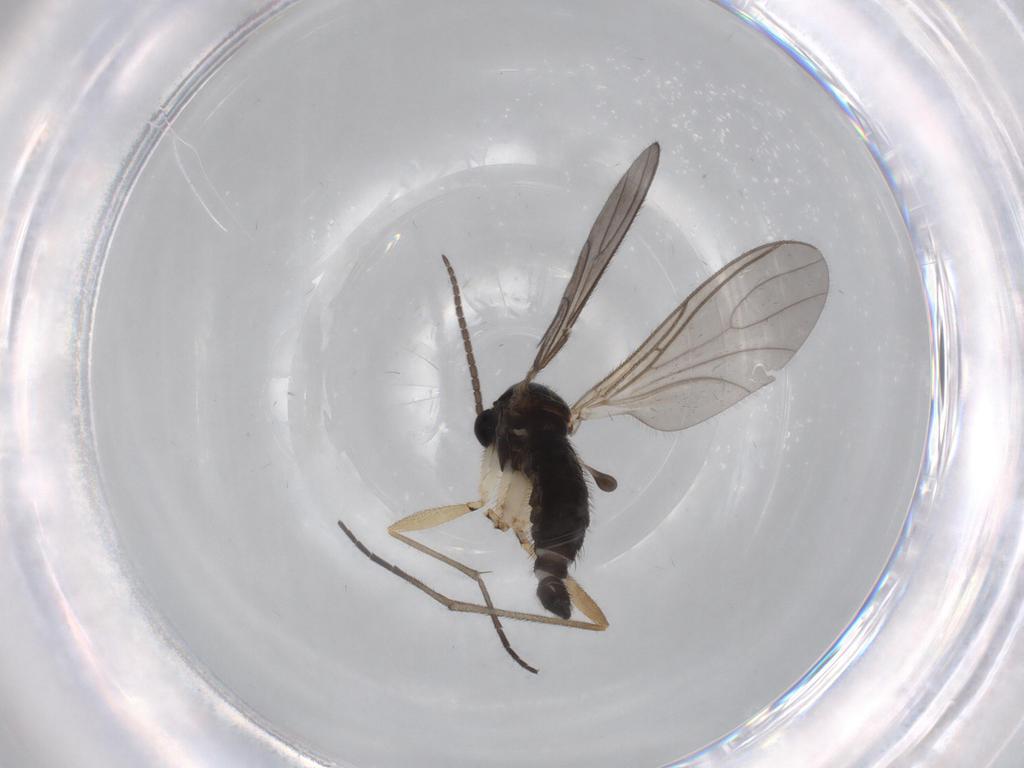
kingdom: Animalia
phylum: Arthropoda
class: Insecta
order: Diptera
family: Sciaridae
